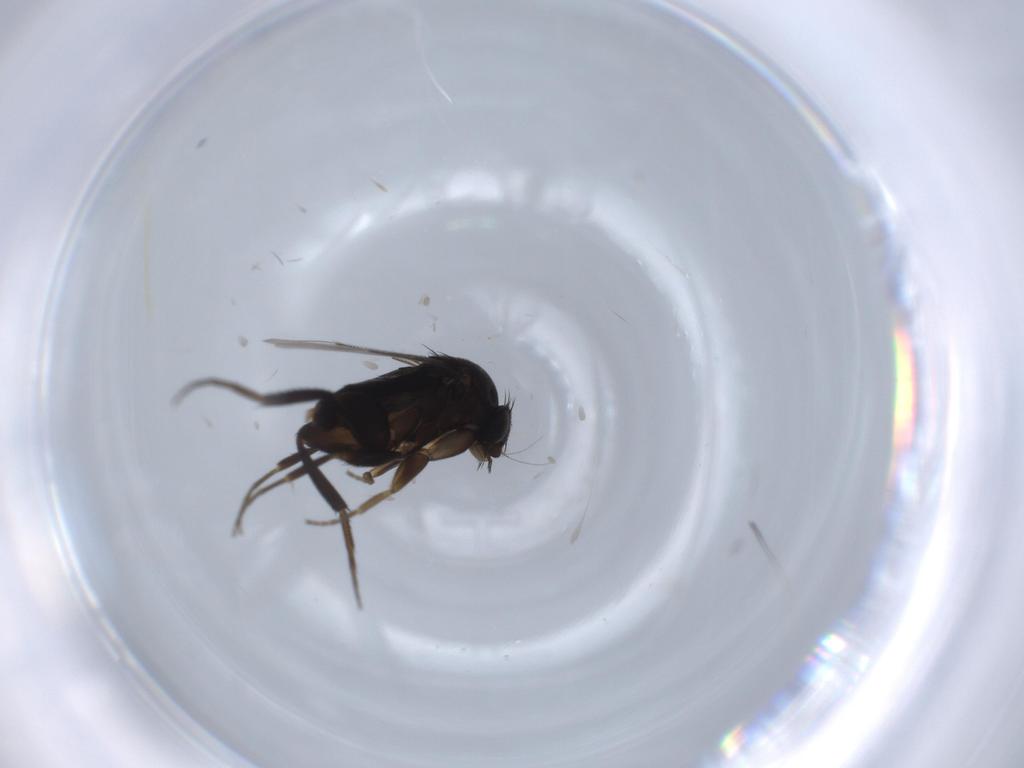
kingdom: Animalia
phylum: Arthropoda
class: Insecta
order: Diptera
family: Phoridae
